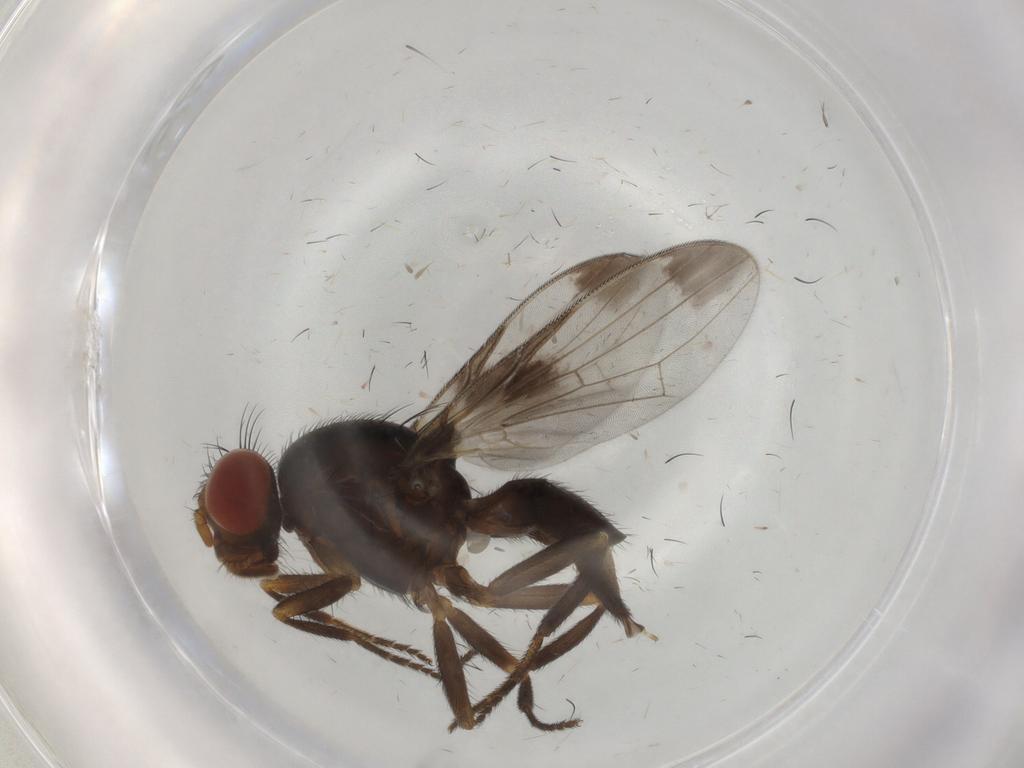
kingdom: Animalia
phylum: Arthropoda
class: Insecta
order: Diptera
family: Ulidiidae
